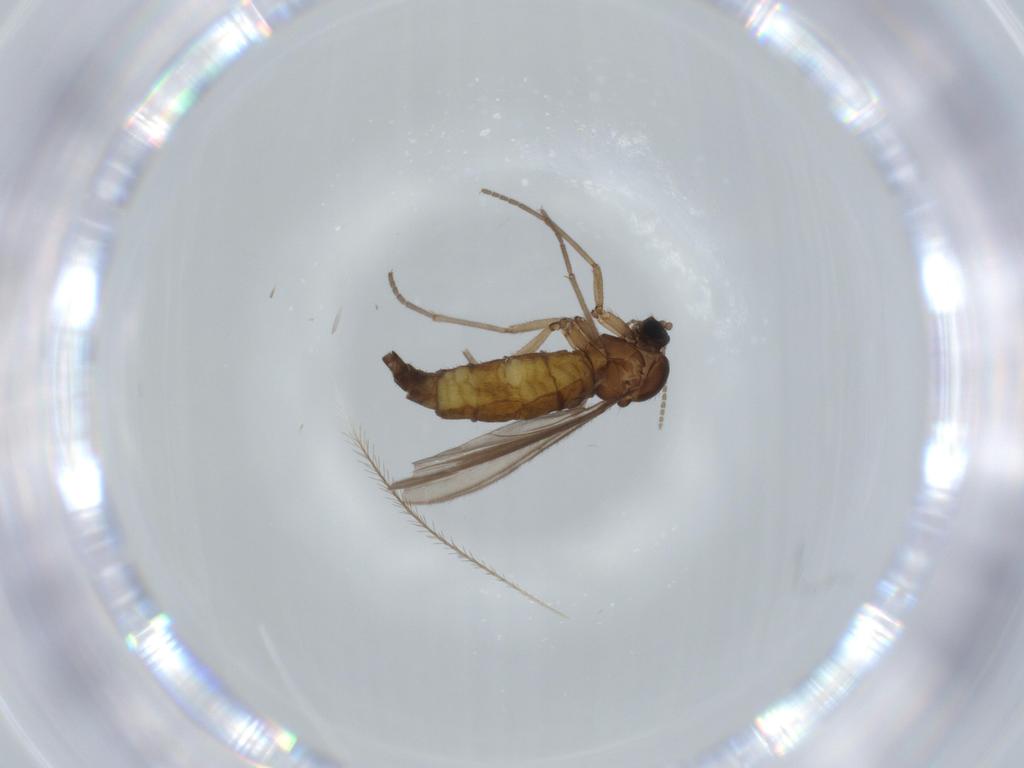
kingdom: Animalia
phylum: Arthropoda
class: Insecta
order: Diptera
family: Sciaridae
